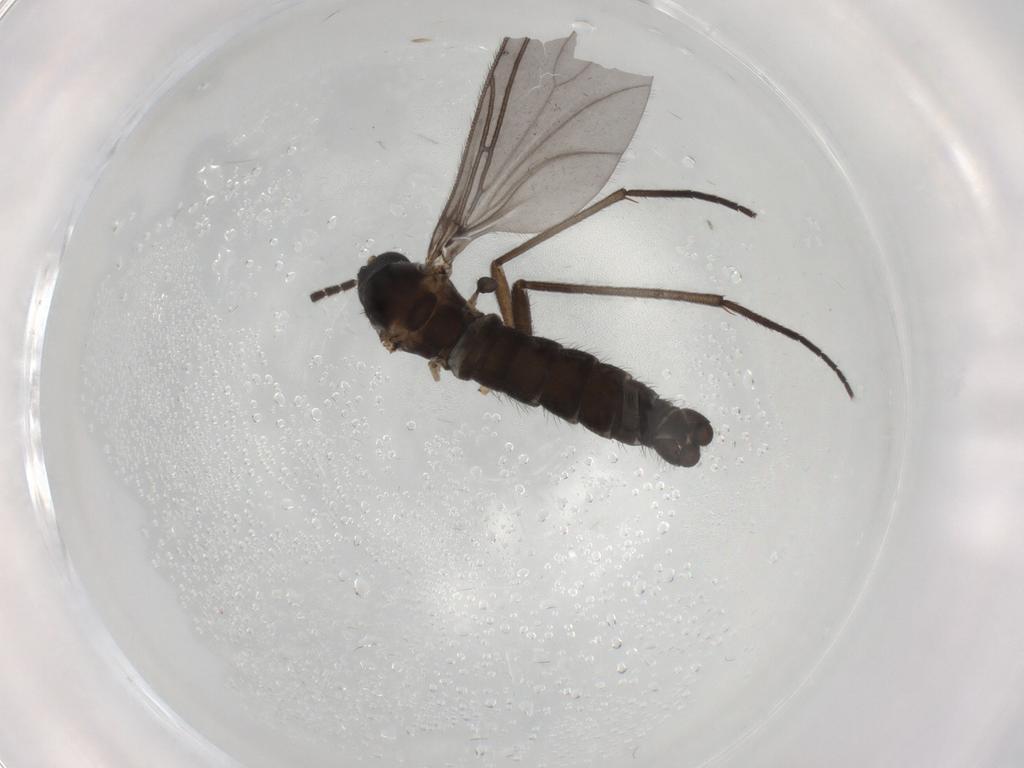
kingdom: Animalia
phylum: Arthropoda
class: Insecta
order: Diptera
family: Sciaridae
